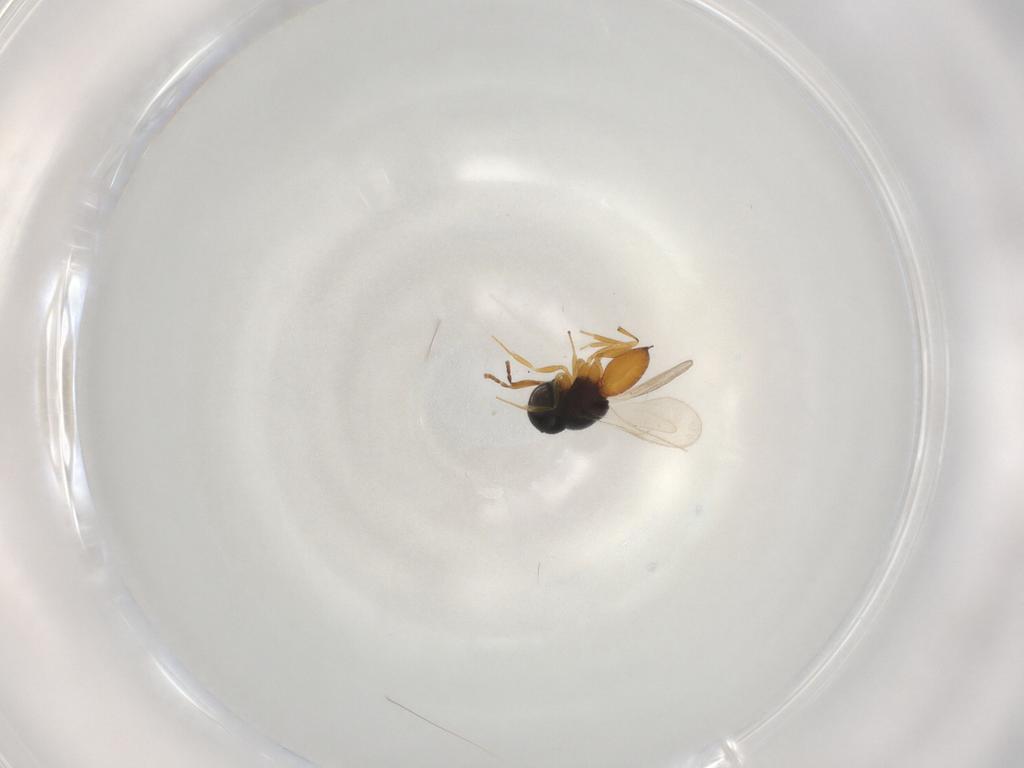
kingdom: Animalia
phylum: Arthropoda
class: Insecta
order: Hymenoptera
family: Scelionidae
